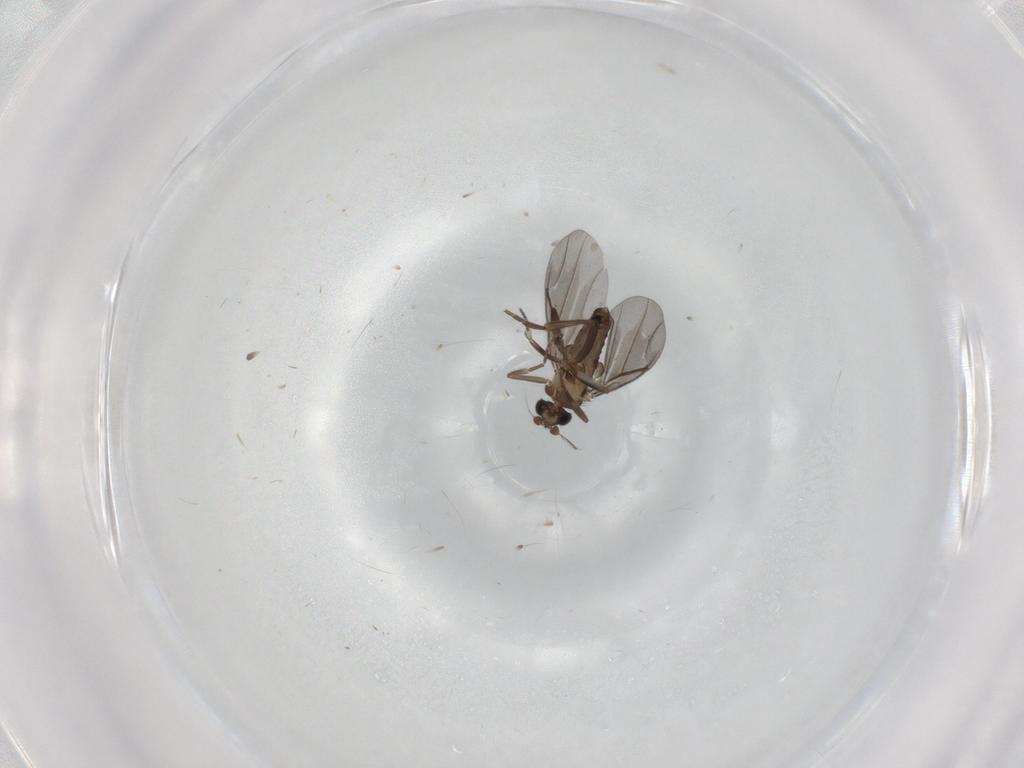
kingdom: Animalia
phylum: Arthropoda
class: Insecta
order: Diptera
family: Phoridae
